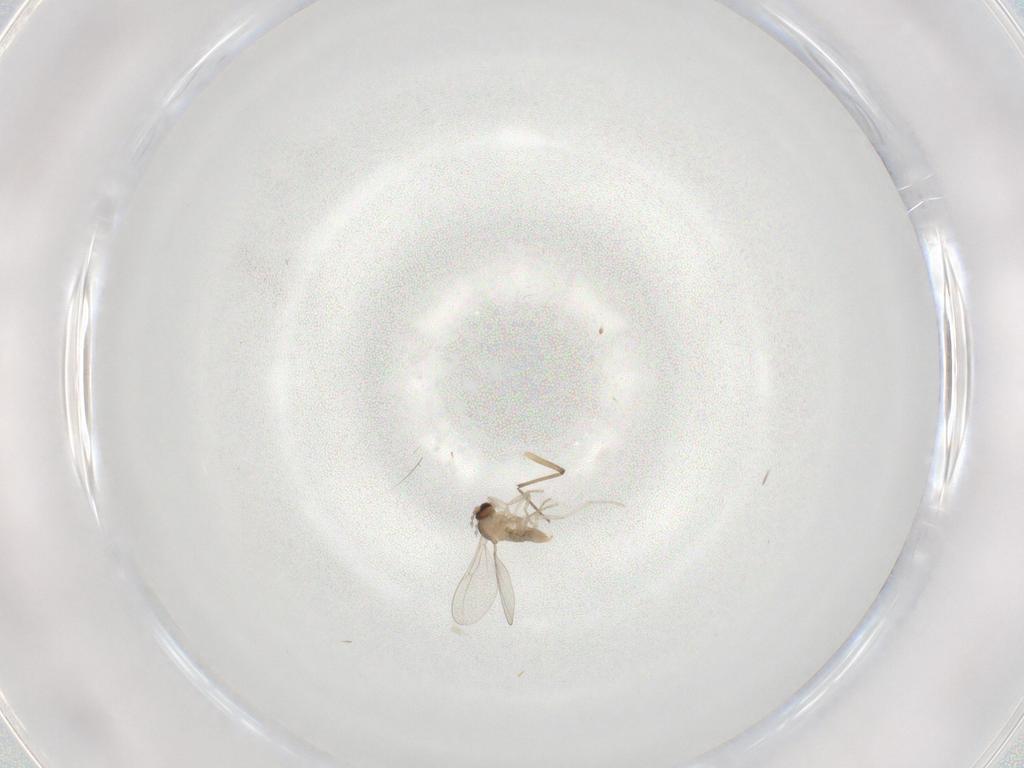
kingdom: Animalia
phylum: Arthropoda
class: Insecta
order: Diptera
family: Cecidomyiidae
